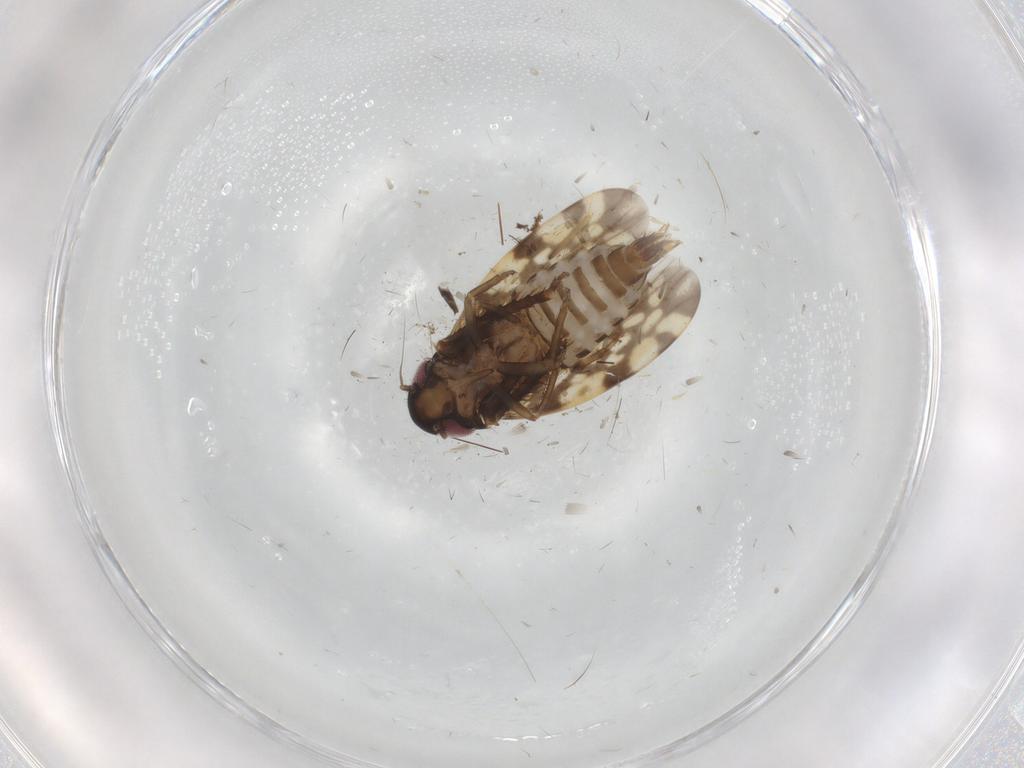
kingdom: Animalia
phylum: Arthropoda
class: Insecta
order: Hemiptera
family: Cicadellidae
